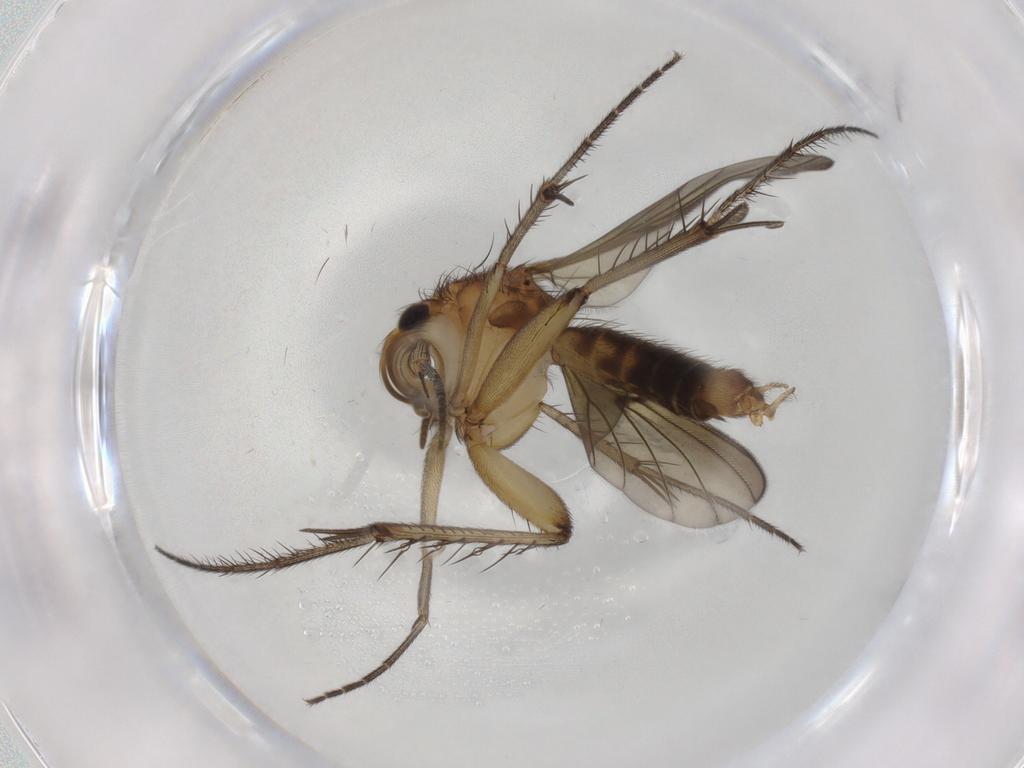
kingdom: Animalia
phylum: Arthropoda
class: Insecta
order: Diptera
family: Mycetophilidae
